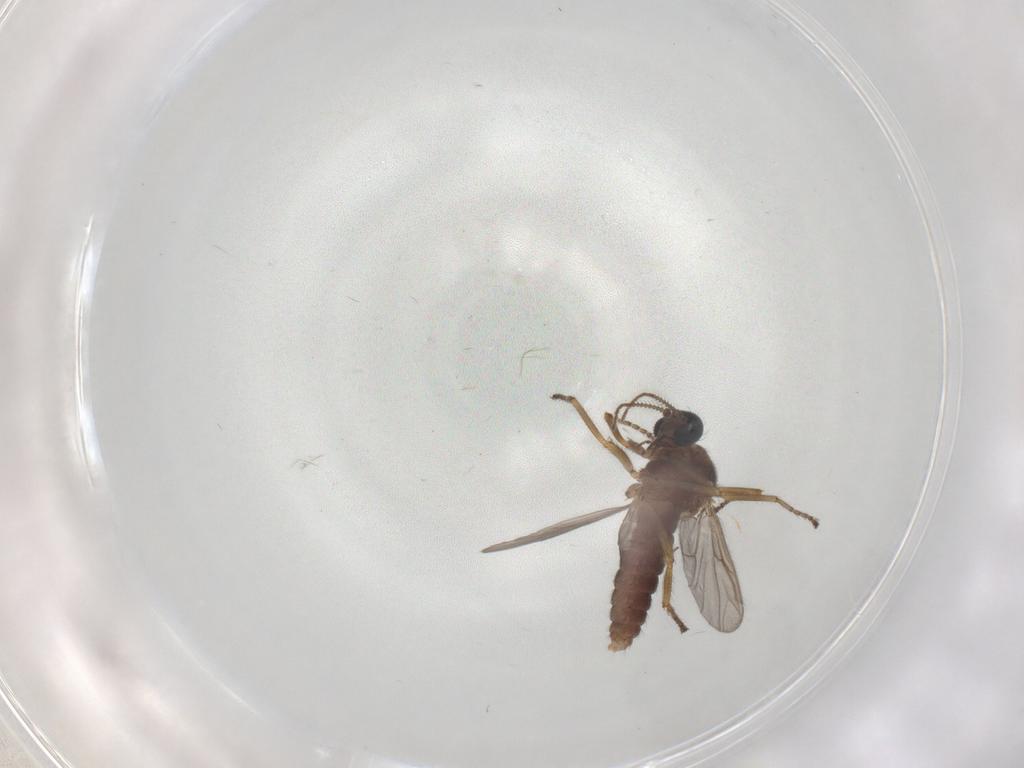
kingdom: Animalia
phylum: Arthropoda
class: Insecta
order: Diptera
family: Ceratopogonidae
